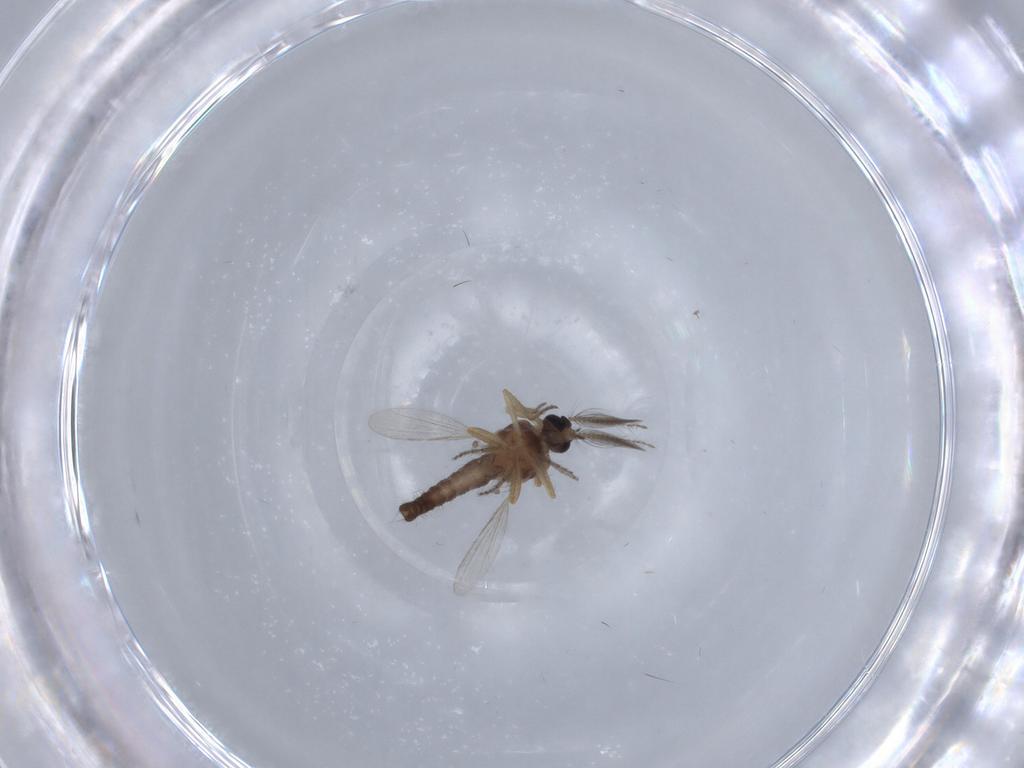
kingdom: Animalia
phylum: Arthropoda
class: Insecta
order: Diptera
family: Ceratopogonidae
